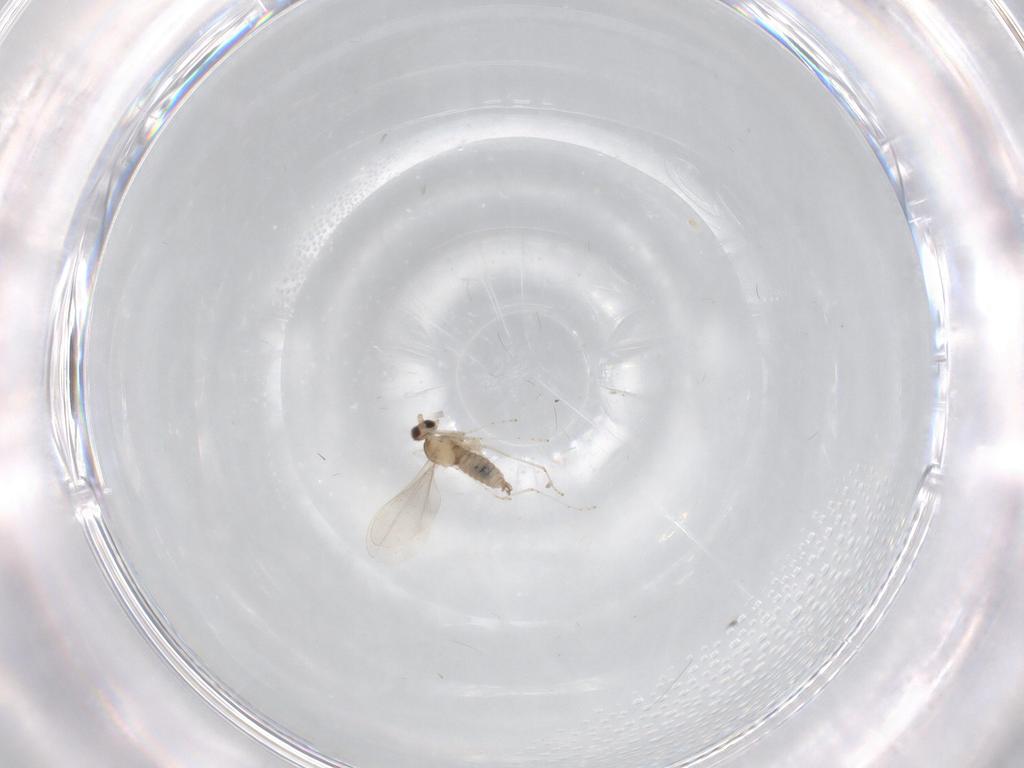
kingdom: Animalia
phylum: Arthropoda
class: Insecta
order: Diptera
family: Cecidomyiidae
